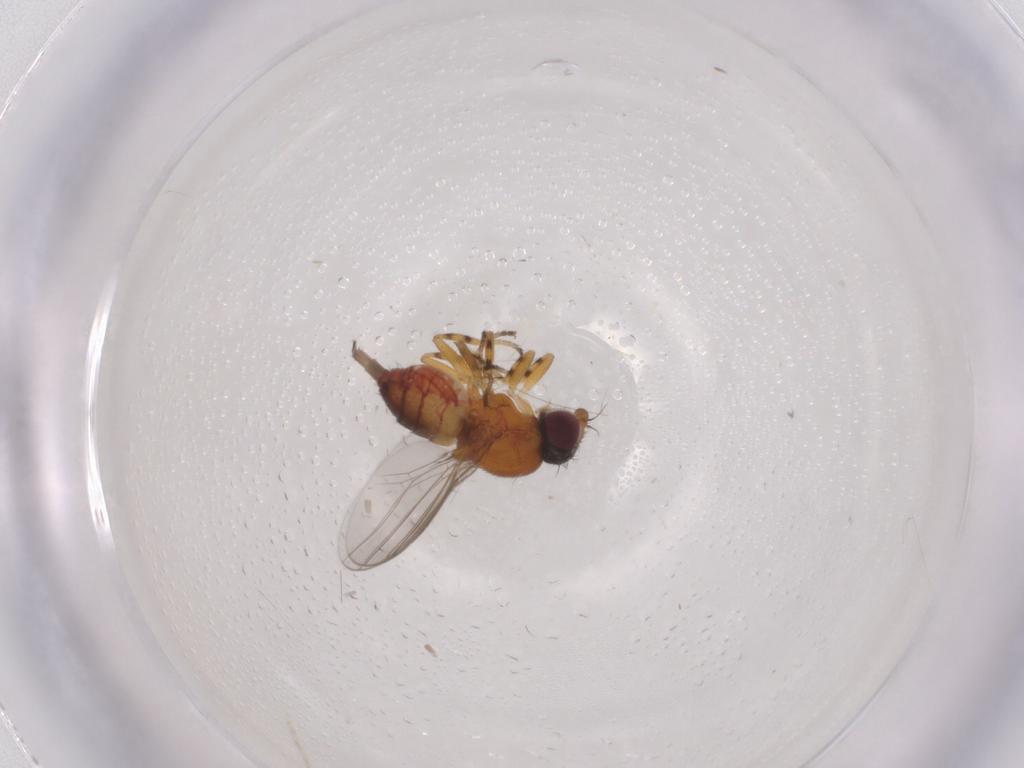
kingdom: Animalia
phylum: Arthropoda
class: Insecta
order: Diptera
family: Chloropidae
